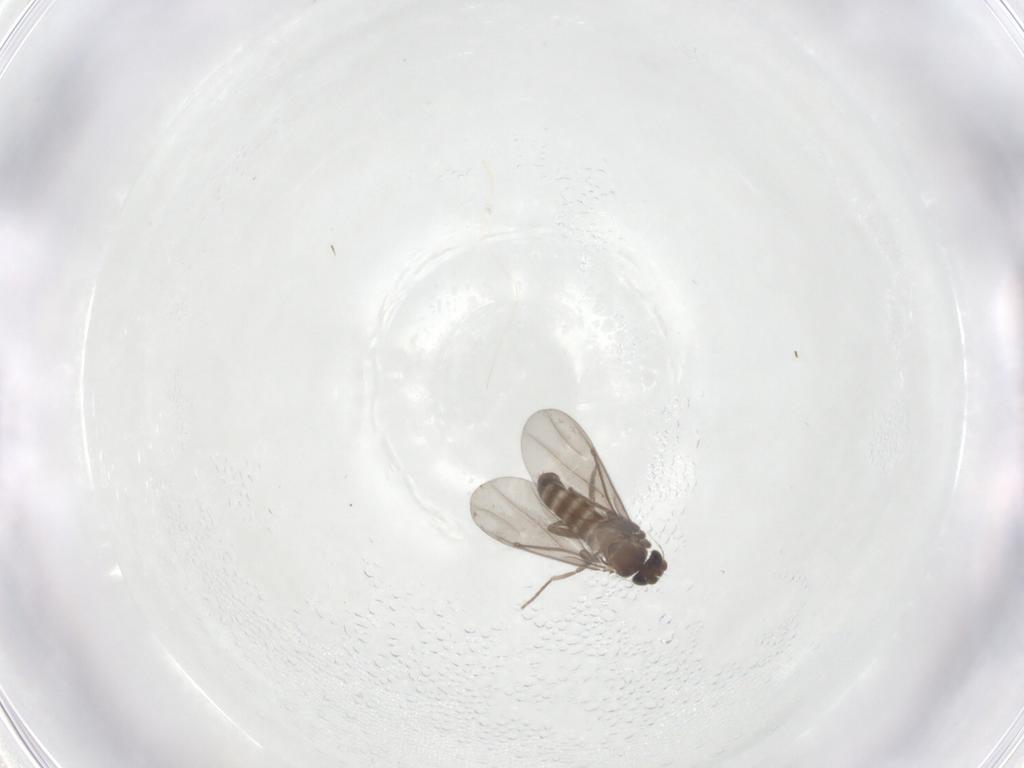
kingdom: Animalia
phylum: Arthropoda
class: Insecta
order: Diptera
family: Phoridae
